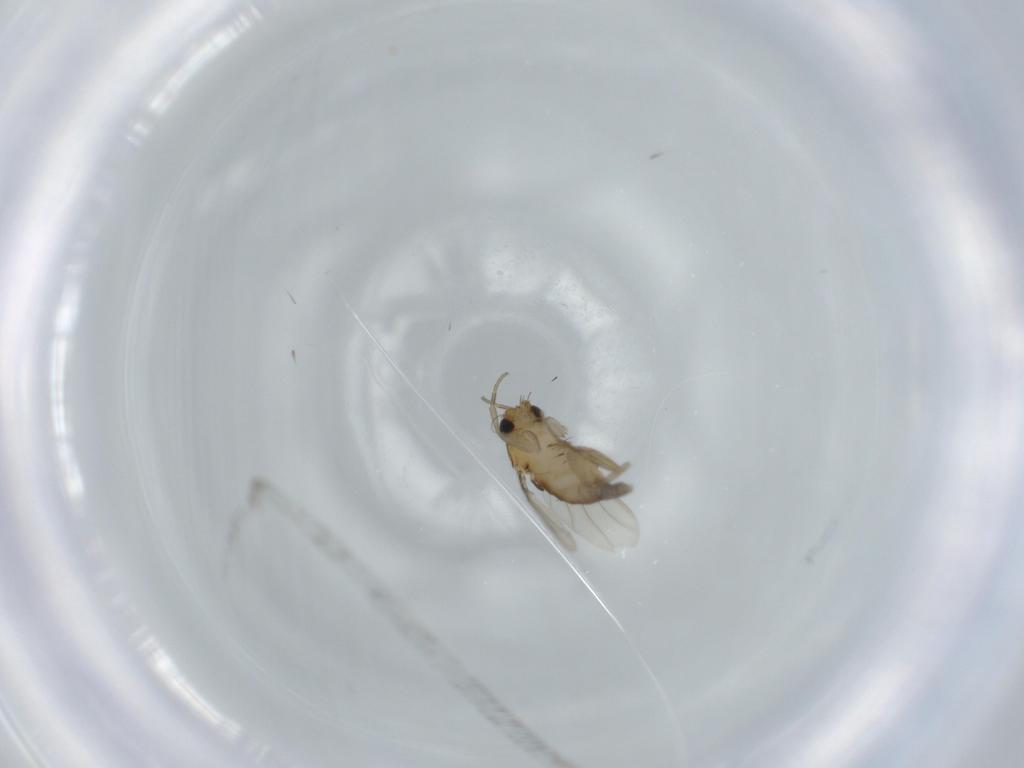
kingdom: Animalia
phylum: Arthropoda
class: Insecta
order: Diptera
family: Phoridae
